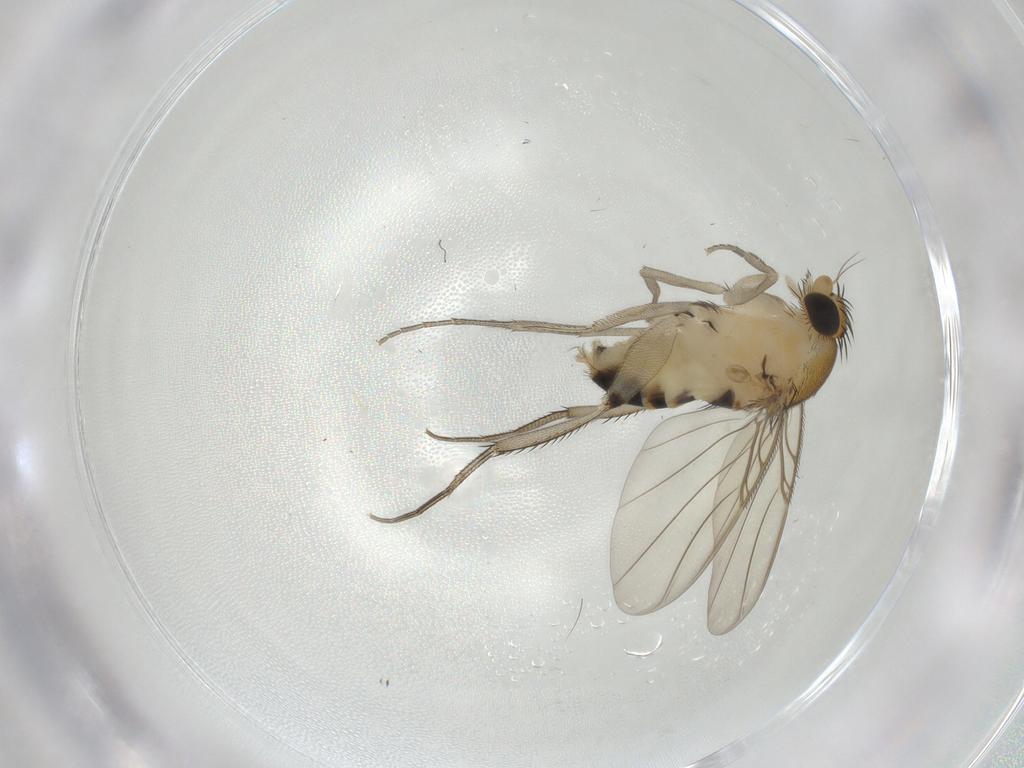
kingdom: Animalia
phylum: Arthropoda
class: Insecta
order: Diptera
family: Phoridae
